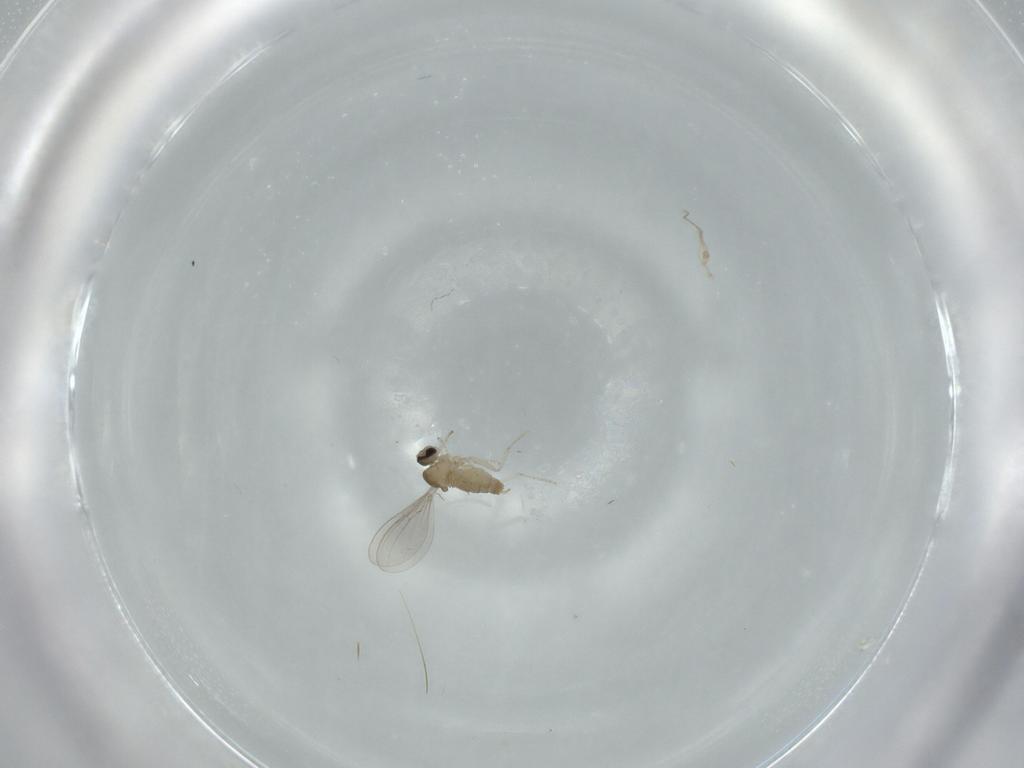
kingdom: Animalia
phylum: Arthropoda
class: Insecta
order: Diptera
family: Cecidomyiidae
